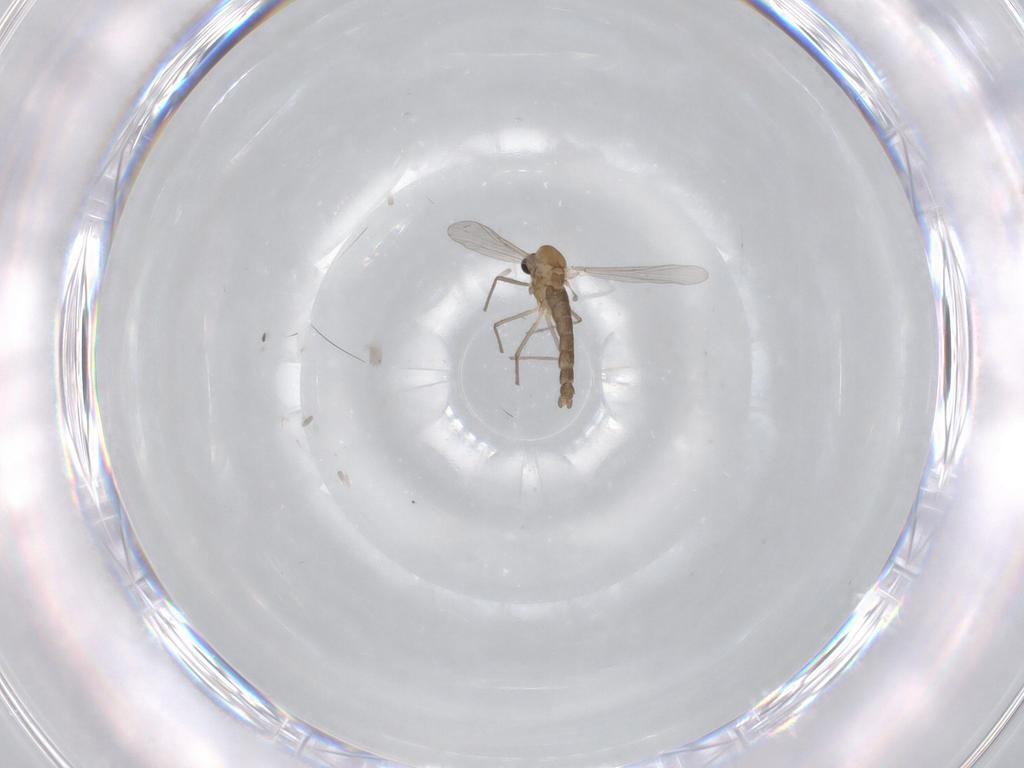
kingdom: Animalia
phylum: Arthropoda
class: Insecta
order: Diptera
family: Chironomidae
